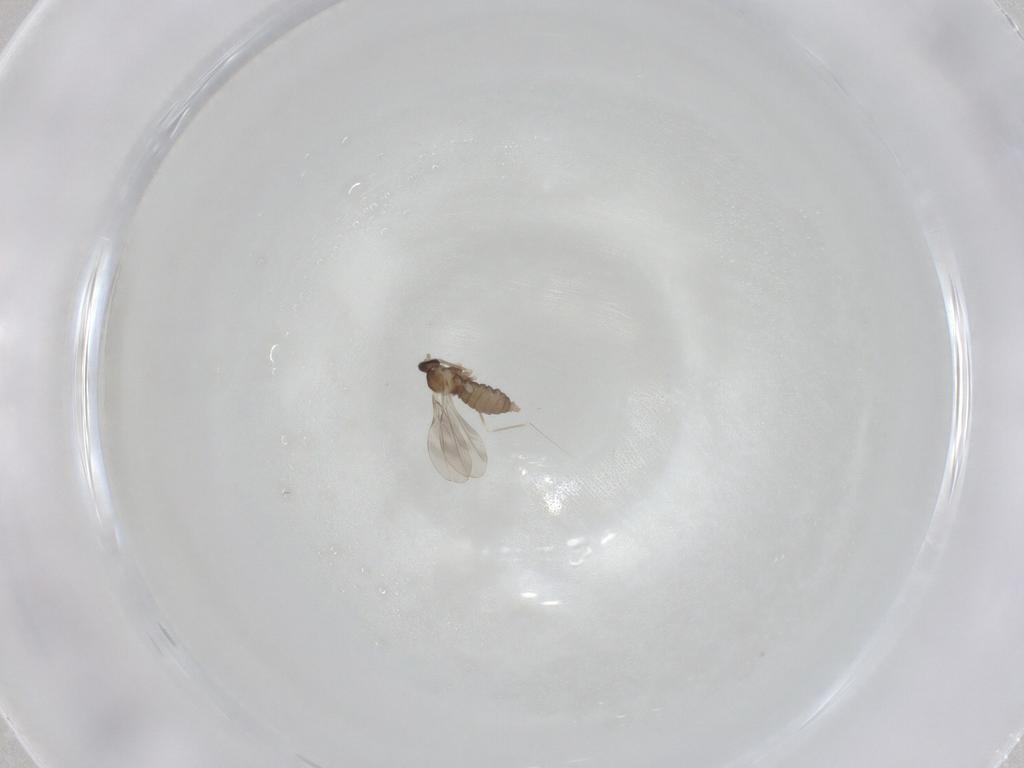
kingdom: Animalia
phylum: Arthropoda
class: Insecta
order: Diptera
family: Cecidomyiidae
